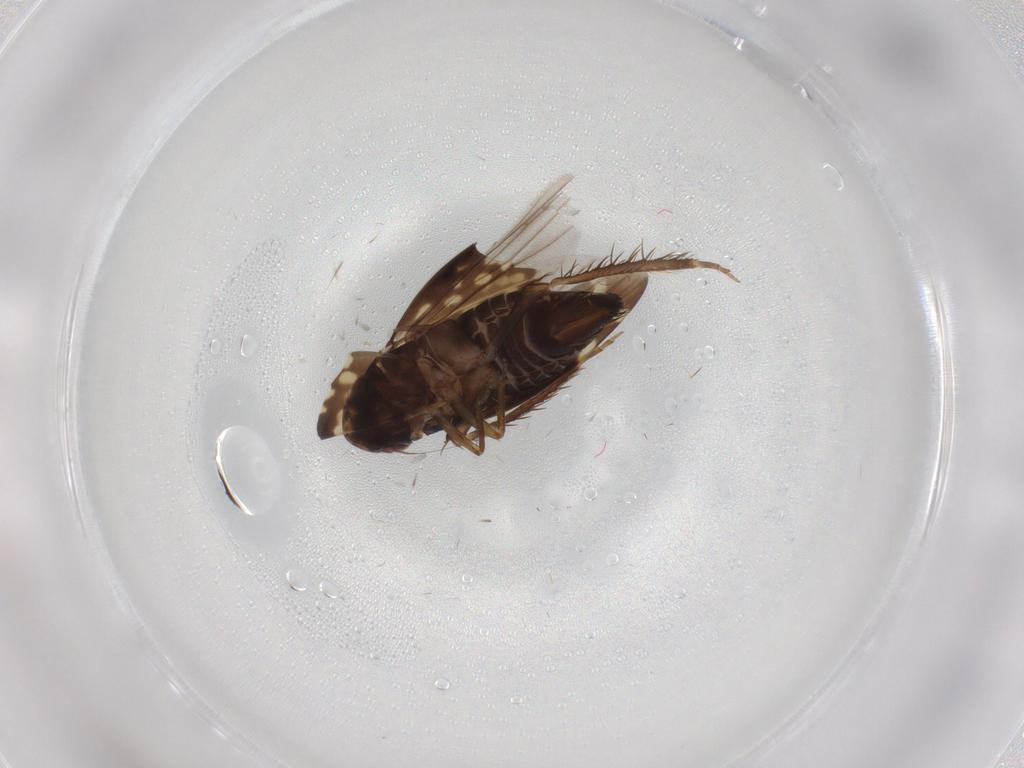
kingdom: Animalia
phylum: Arthropoda
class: Insecta
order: Hemiptera
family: Cicadellidae
